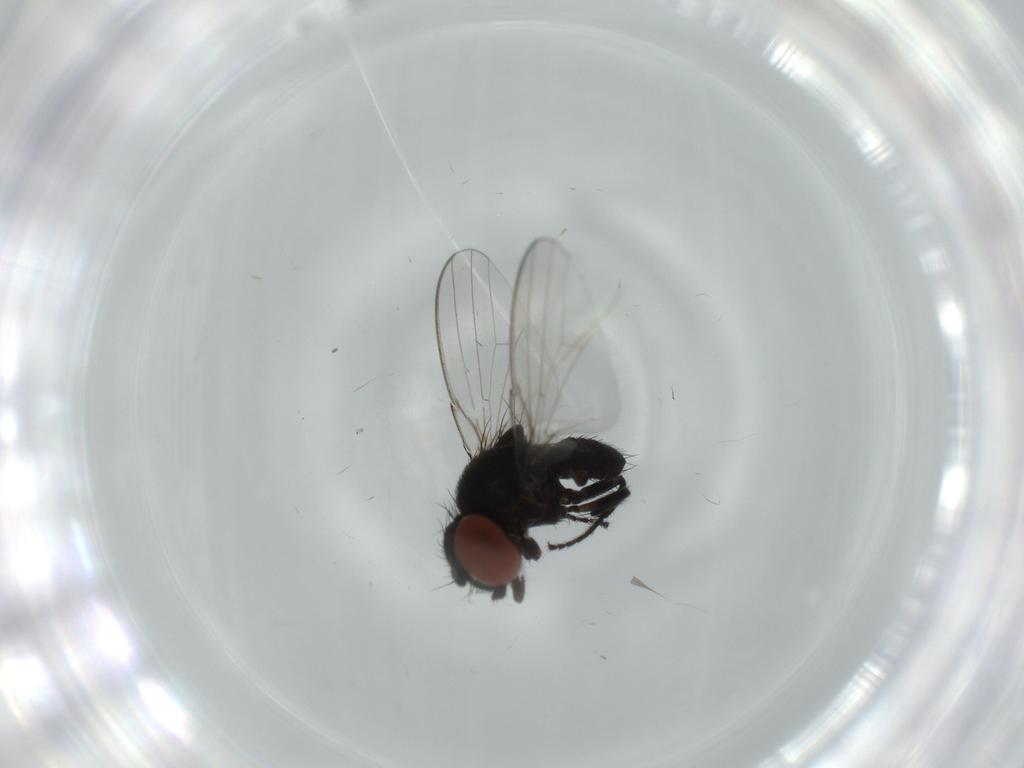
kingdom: Animalia
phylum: Arthropoda
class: Insecta
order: Diptera
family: Milichiidae
